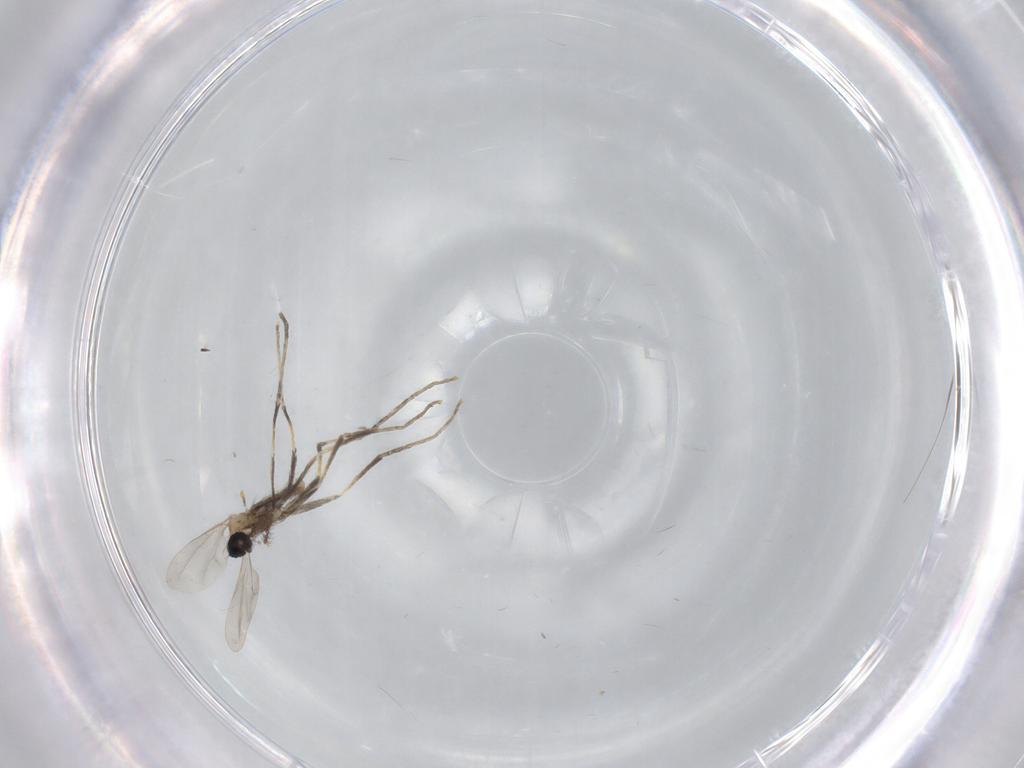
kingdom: Animalia
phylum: Arthropoda
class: Insecta
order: Diptera
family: Cecidomyiidae
